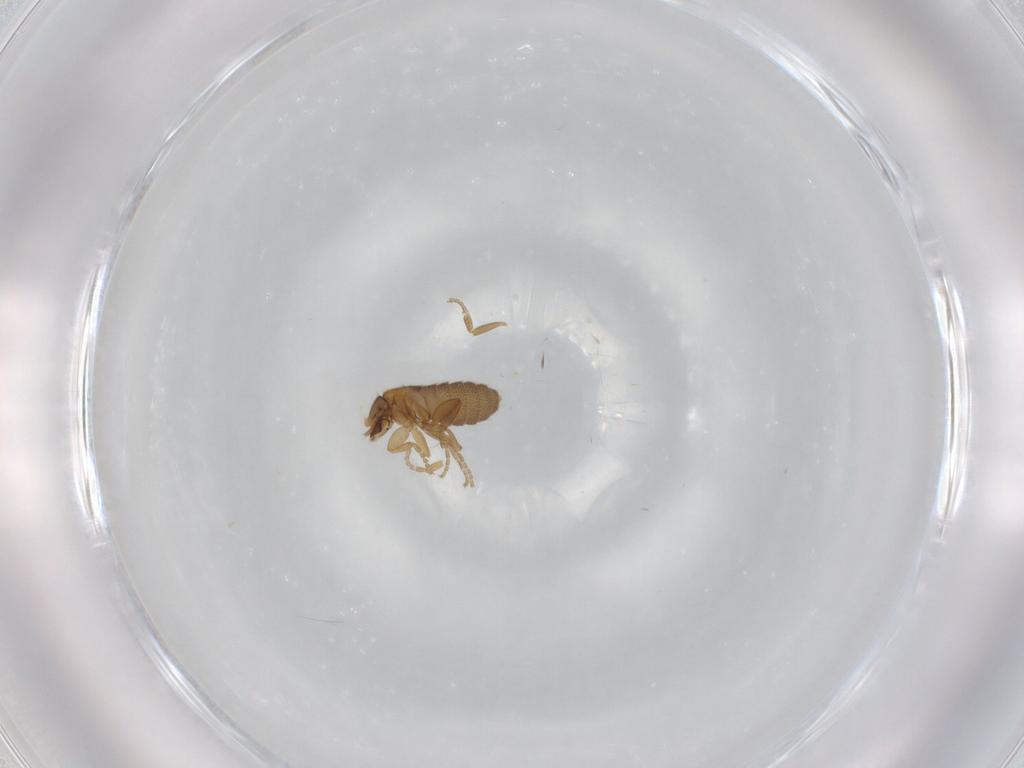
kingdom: Animalia
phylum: Arthropoda
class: Insecta
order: Diptera
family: Phoridae
